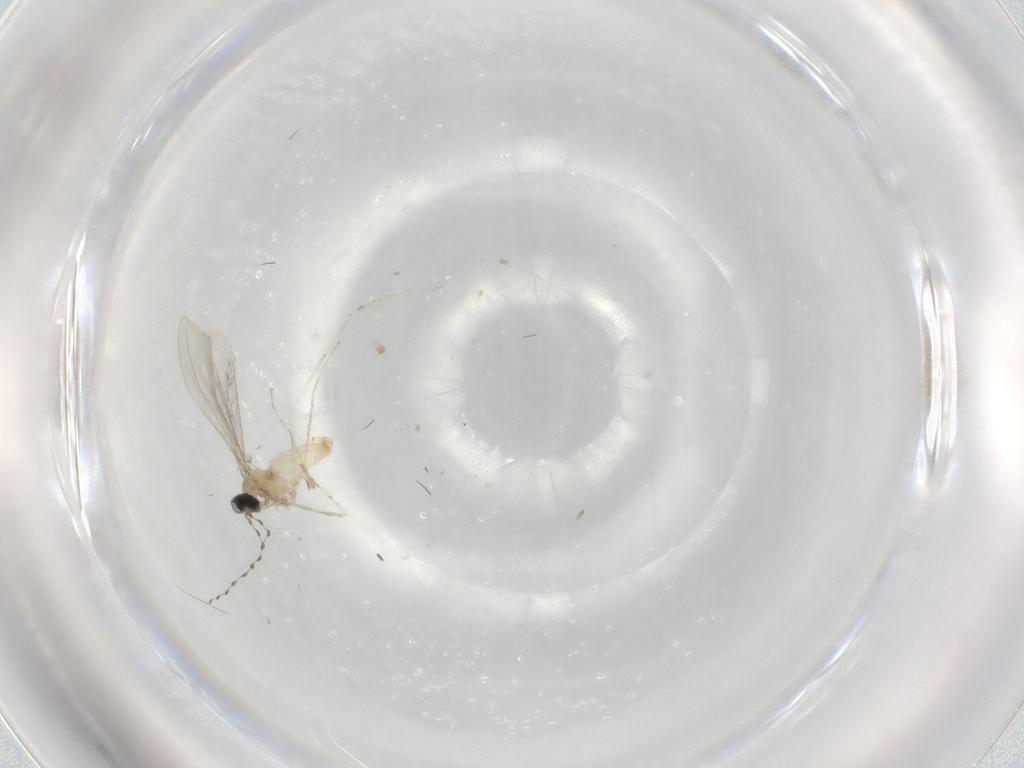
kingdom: Animalia
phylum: Arthropoda
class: Insecta
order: Diptera
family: Cecidomyiidae
